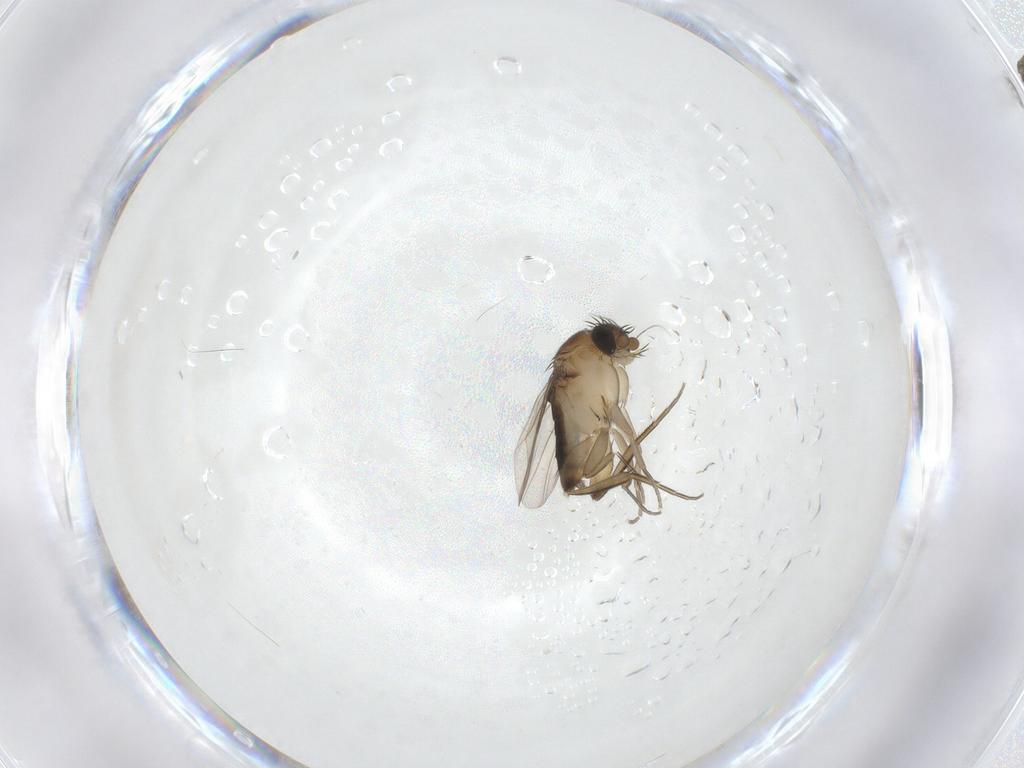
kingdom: Animalia
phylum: Arthropoda
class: Insecta
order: Diptera
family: Phoridae
